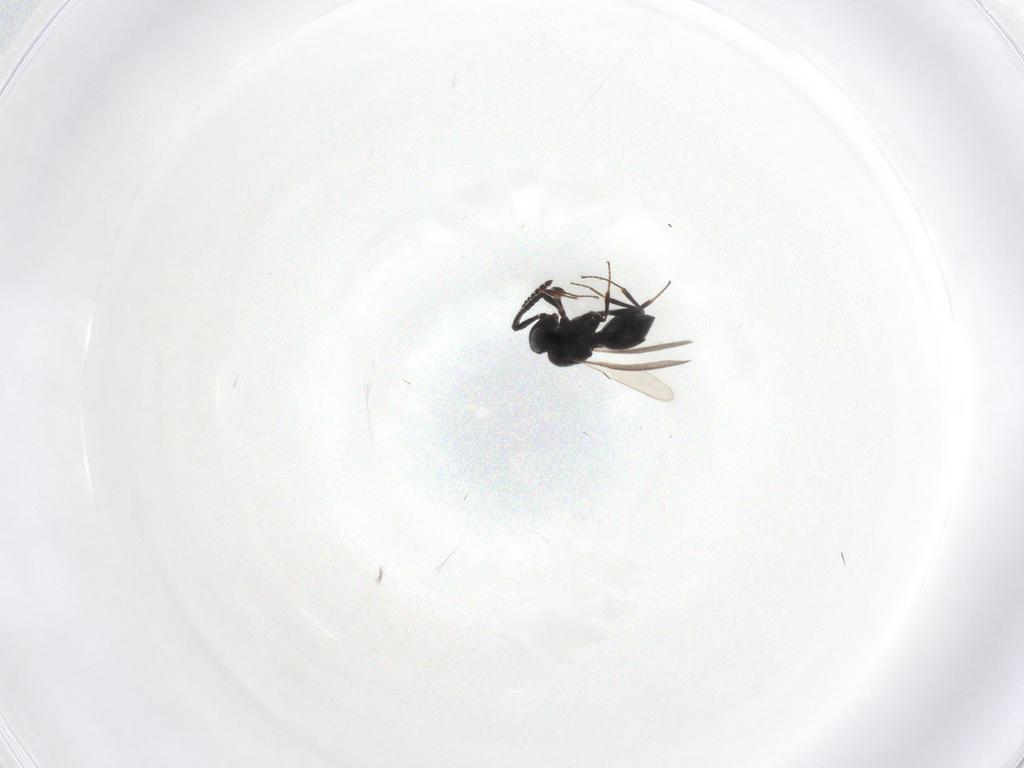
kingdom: Animalia
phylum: Arthropoda
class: Insecta
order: Hymenoptera
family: Scelionidae
